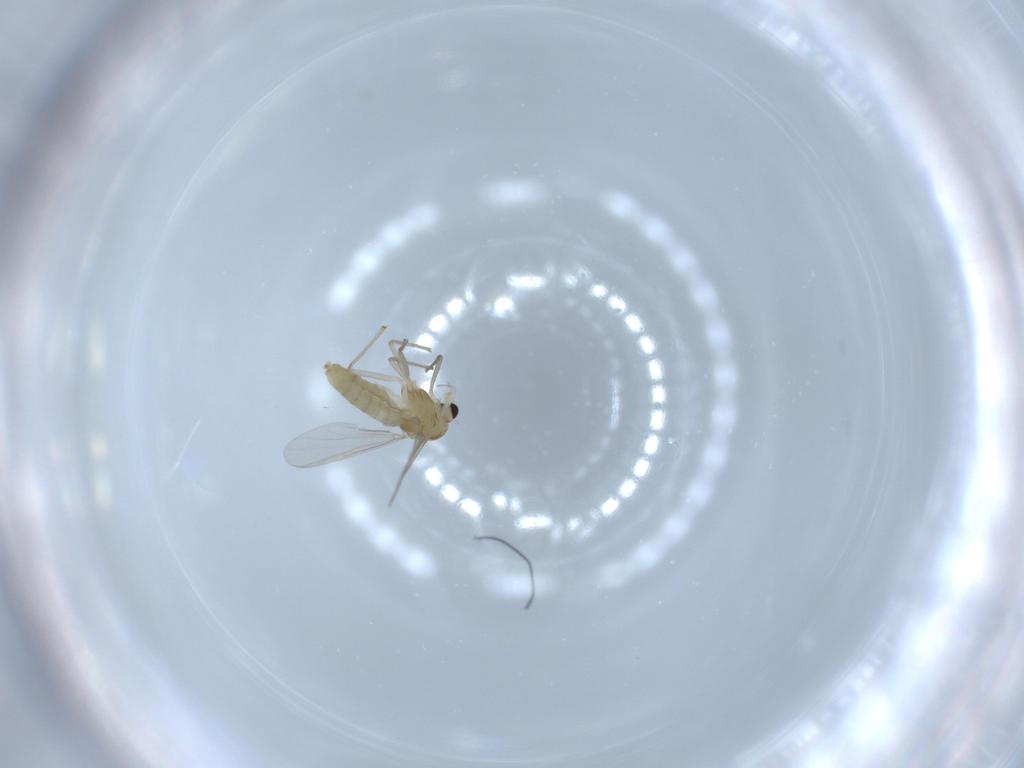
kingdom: Animalia
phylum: Arthropoda
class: Insecta
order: Diptera
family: Chironomidae
